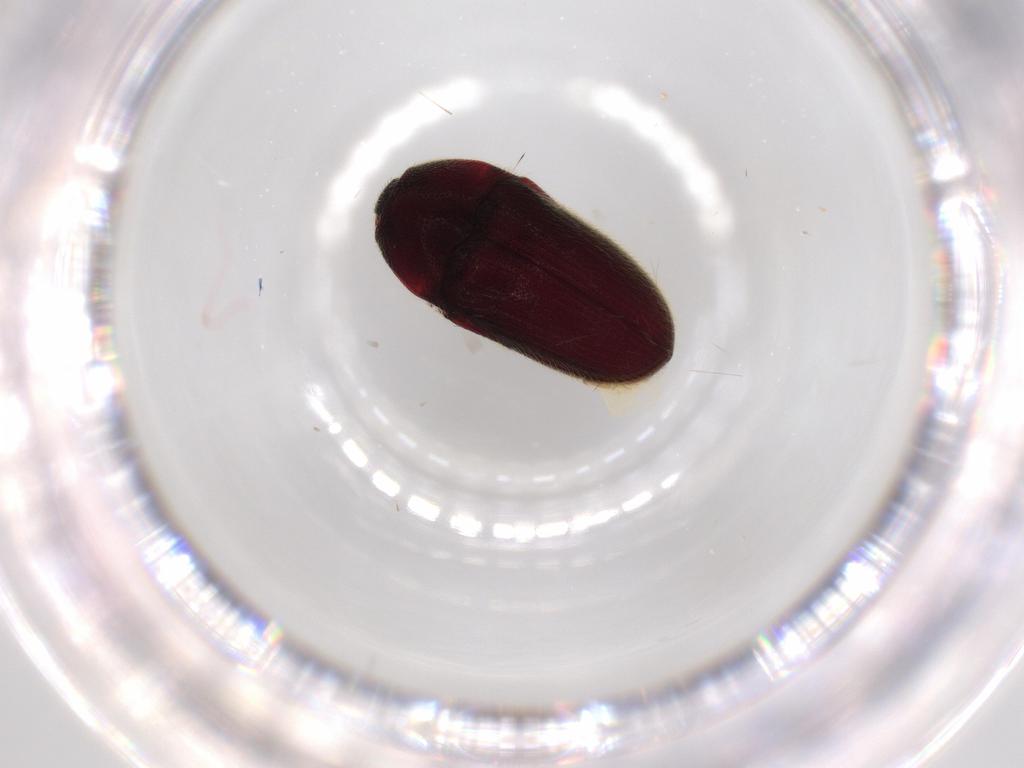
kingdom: Animalia
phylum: Arthropoda
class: Insecta
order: Coleoptera
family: Throscidae
